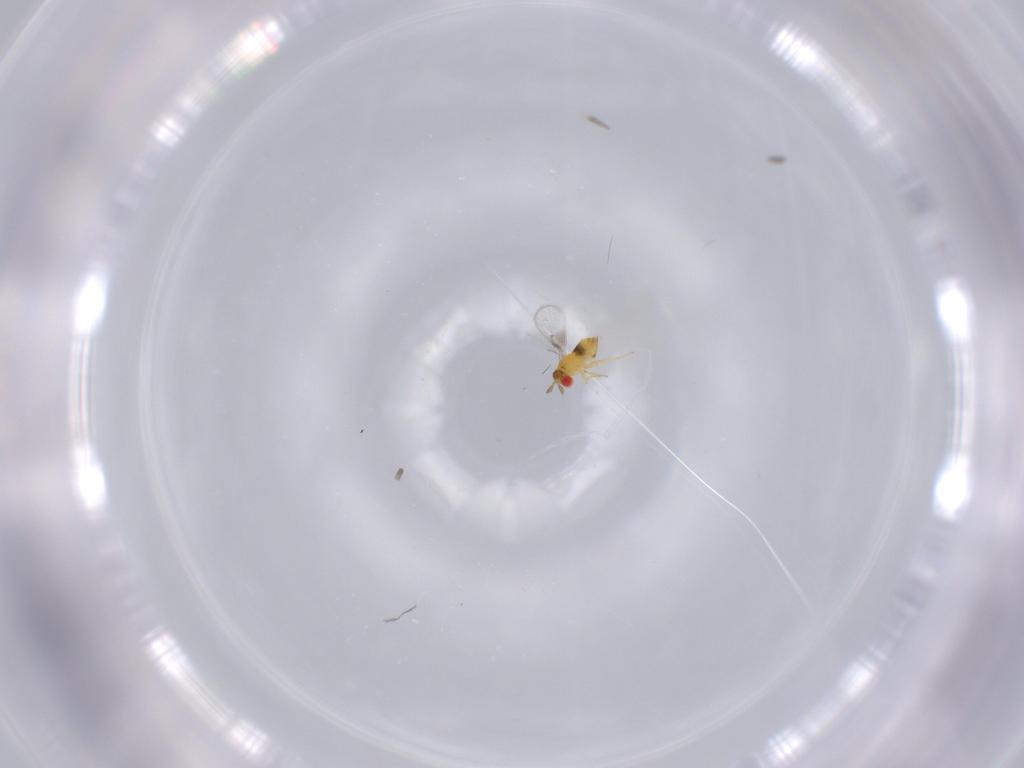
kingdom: Animalia
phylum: Arthropoda
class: Insecta
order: Hymenoptera
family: Trichogrammatidae
